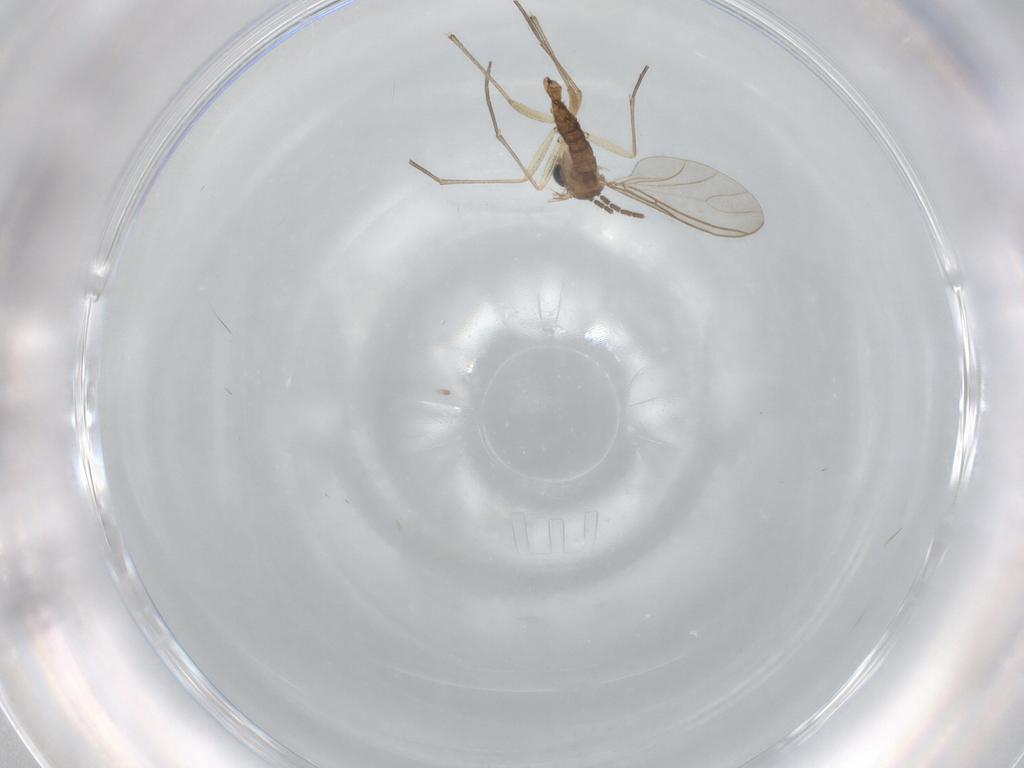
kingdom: Animalia
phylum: Arthropoda
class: Insecta
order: Diptera
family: Sciaridae
